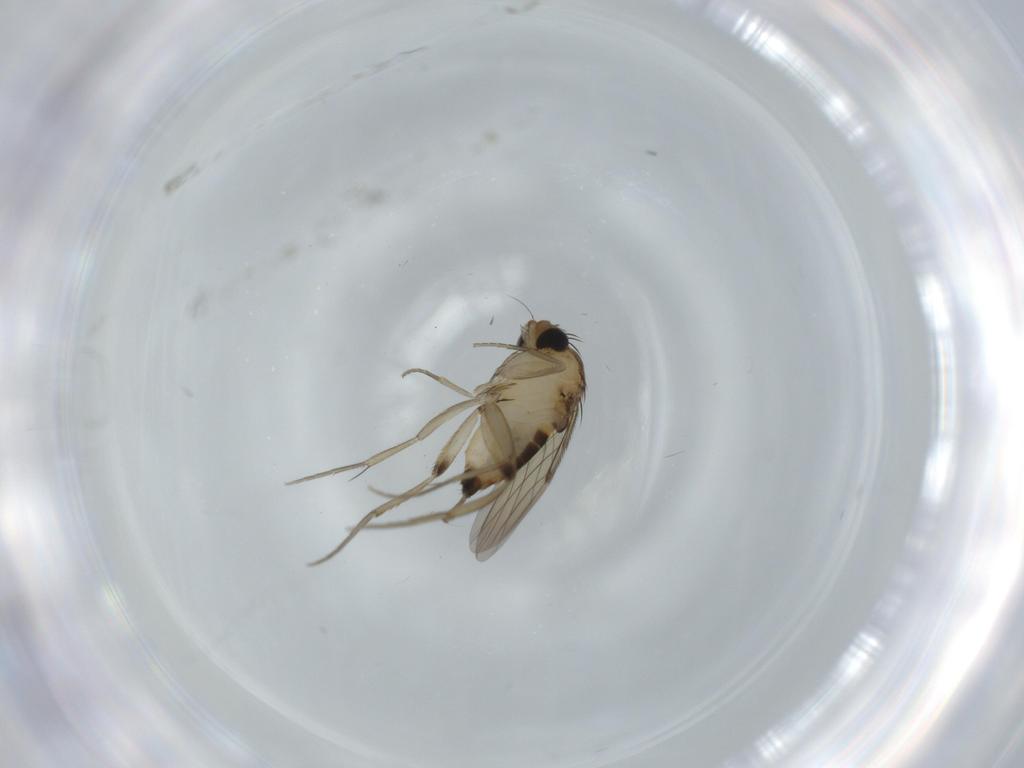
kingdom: Animalia
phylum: Arthropoda
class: Insecta
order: Diptera
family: Phoridae
